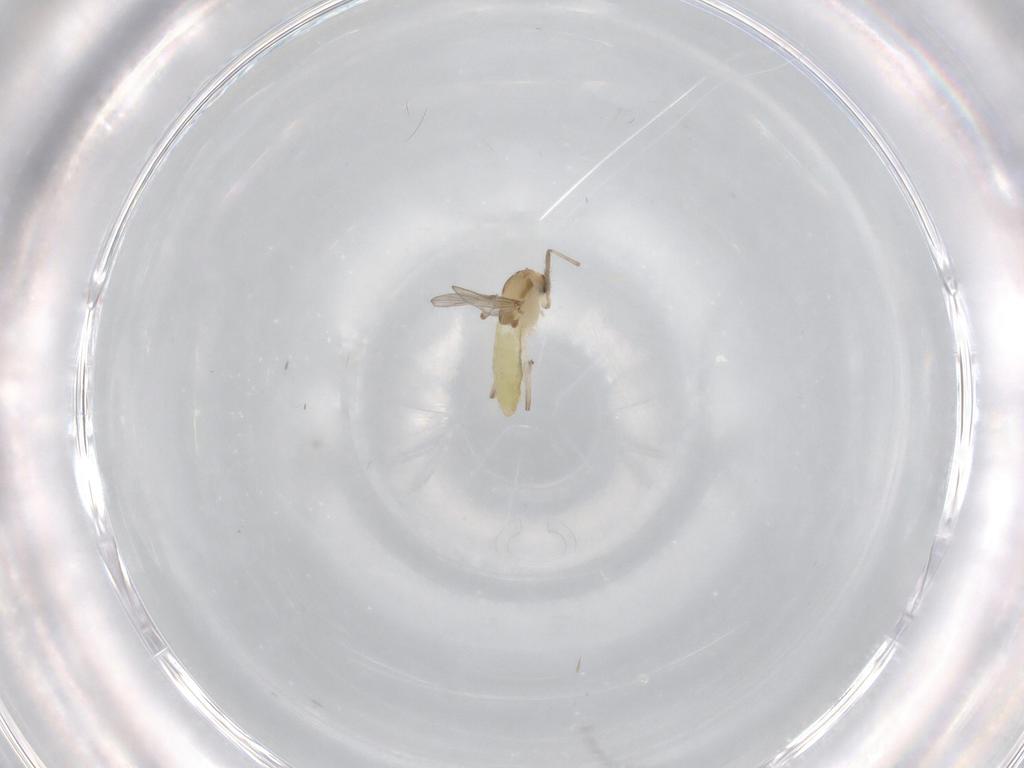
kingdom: Animalia
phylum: Arthropoda
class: Insecta
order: Diptera
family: Chironomidae
